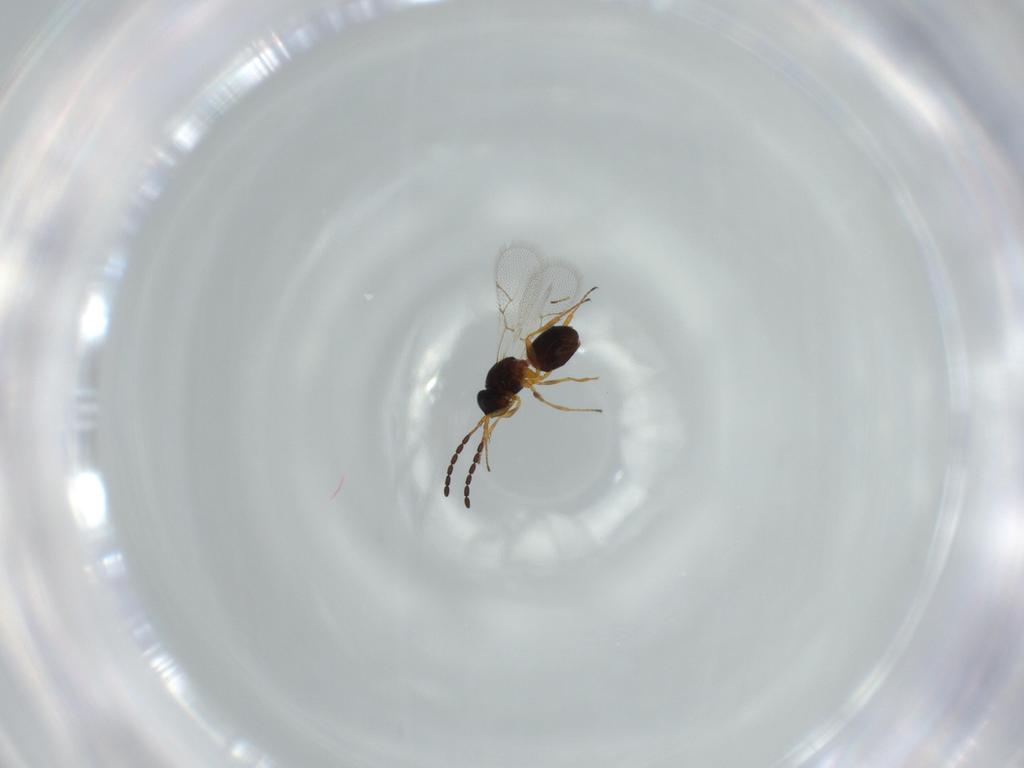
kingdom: Animalia
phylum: Arthropoda
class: Insecta
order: Hymenoptera
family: Figitidae
